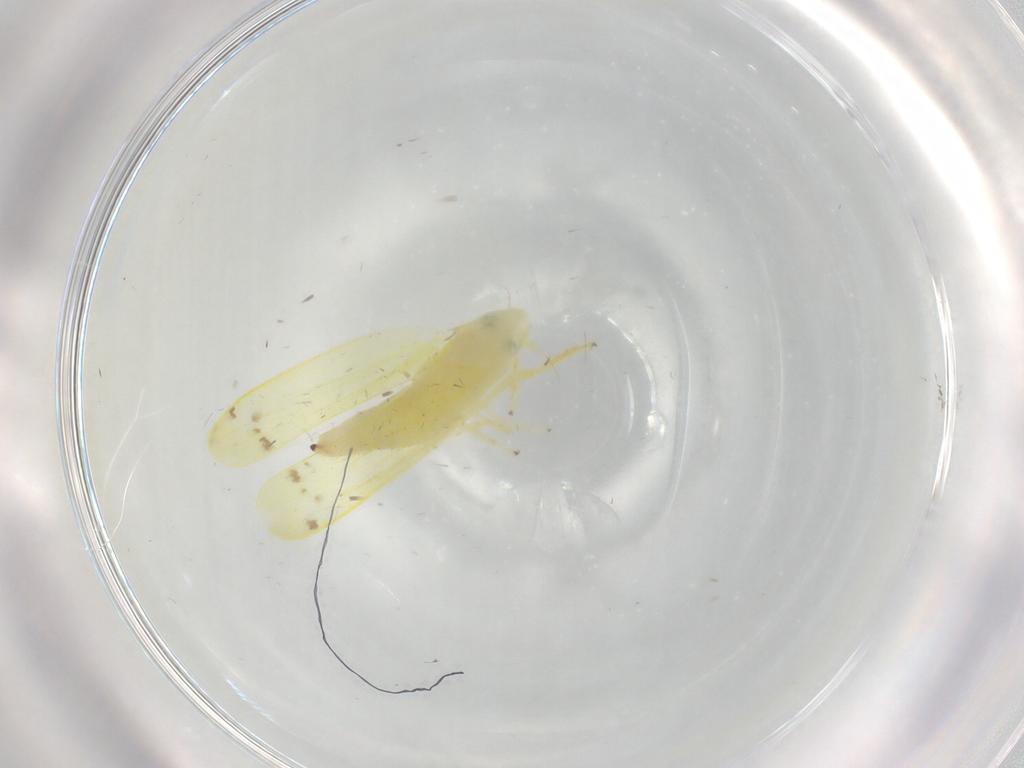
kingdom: Animalia
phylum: Arthropoda
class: Insecta
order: Hemiptera
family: Cicadellidae
